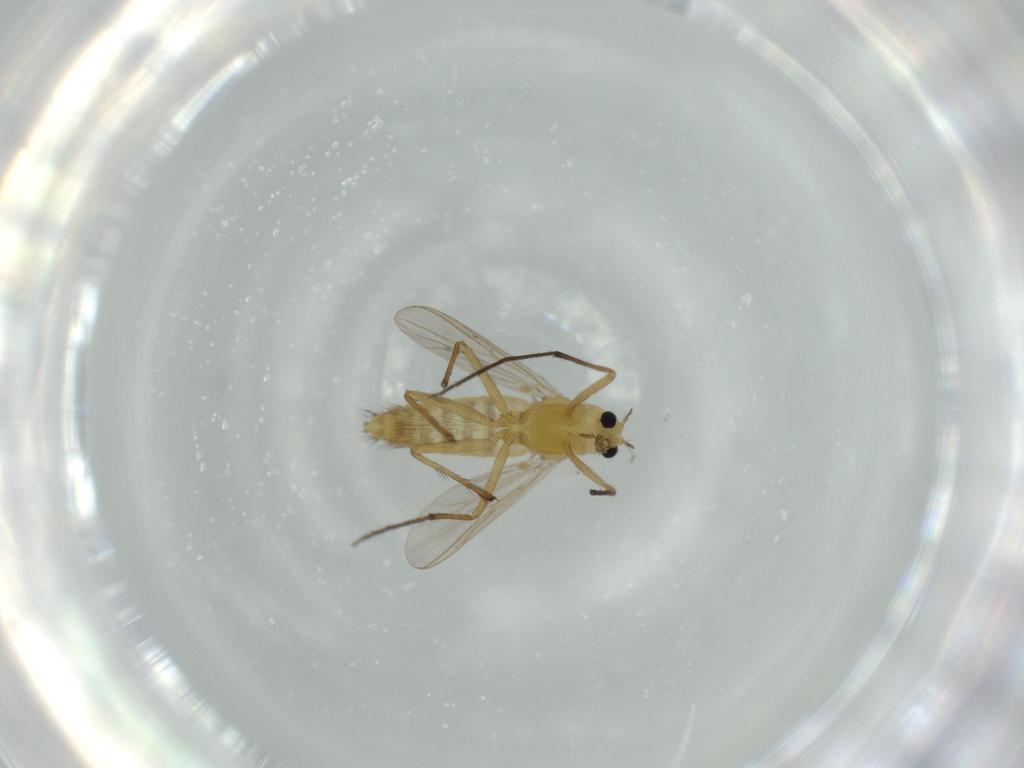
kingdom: Animalia
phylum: Arthropoda
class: Insecta
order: Diptera
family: Chironomidae
